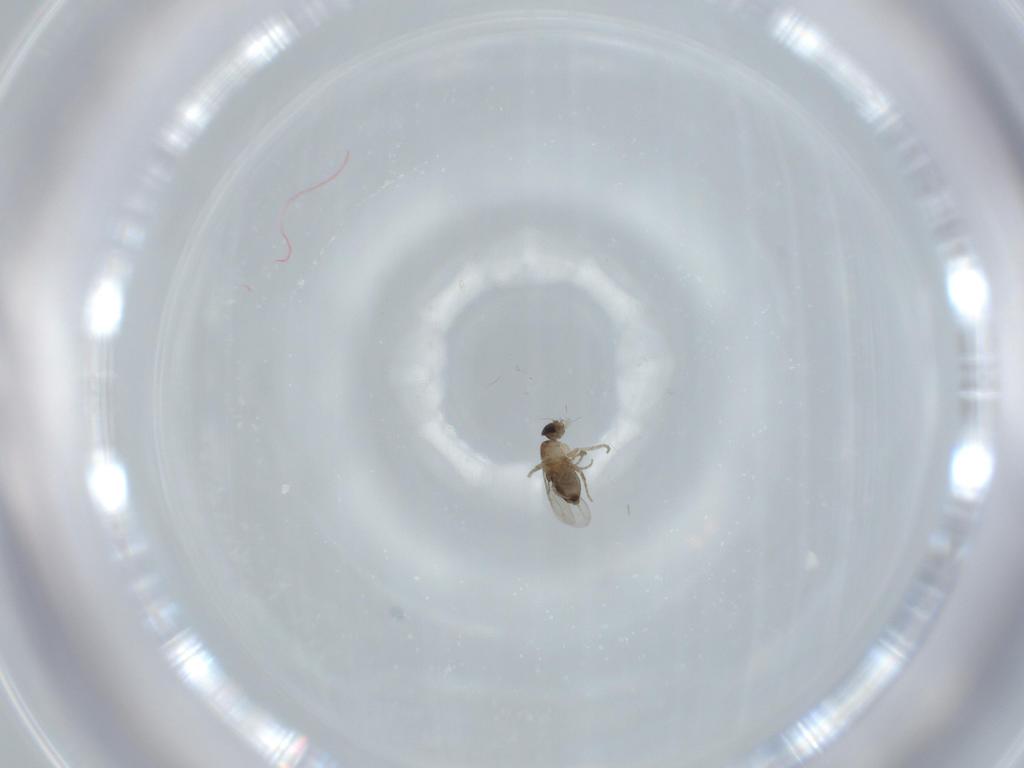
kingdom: Animalia
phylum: Arthropoda
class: Insecta
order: Diptera
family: Phoridae
